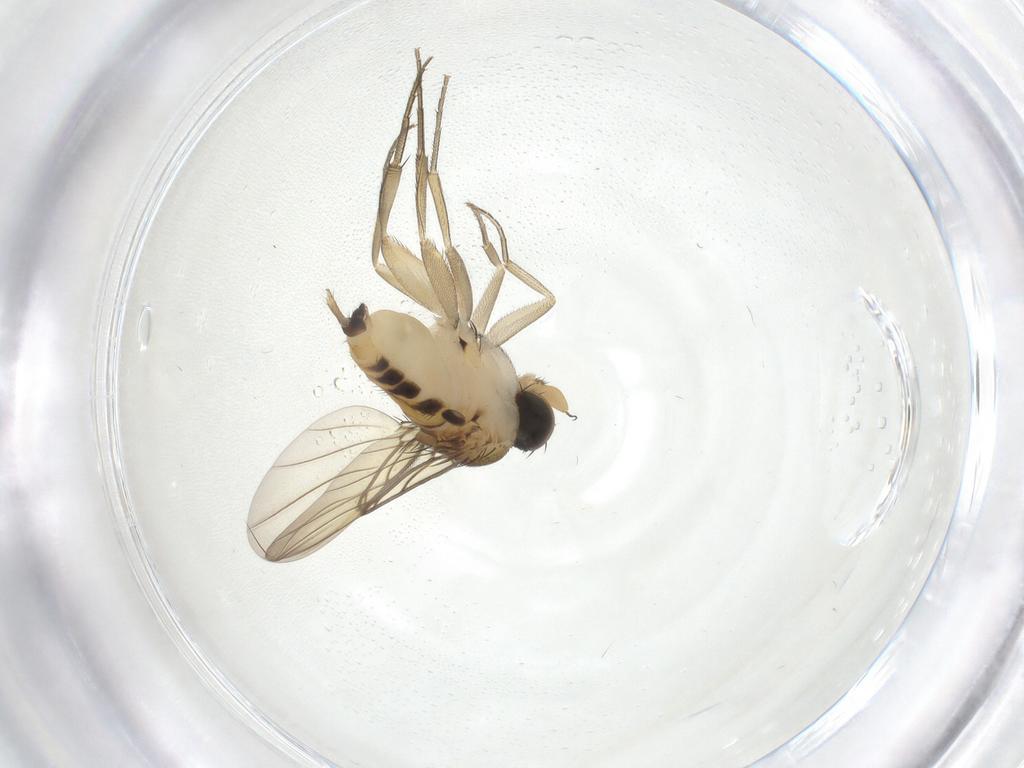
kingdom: Animalia
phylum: Arthropoda
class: Insecta
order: Diptera
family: Phoridae
